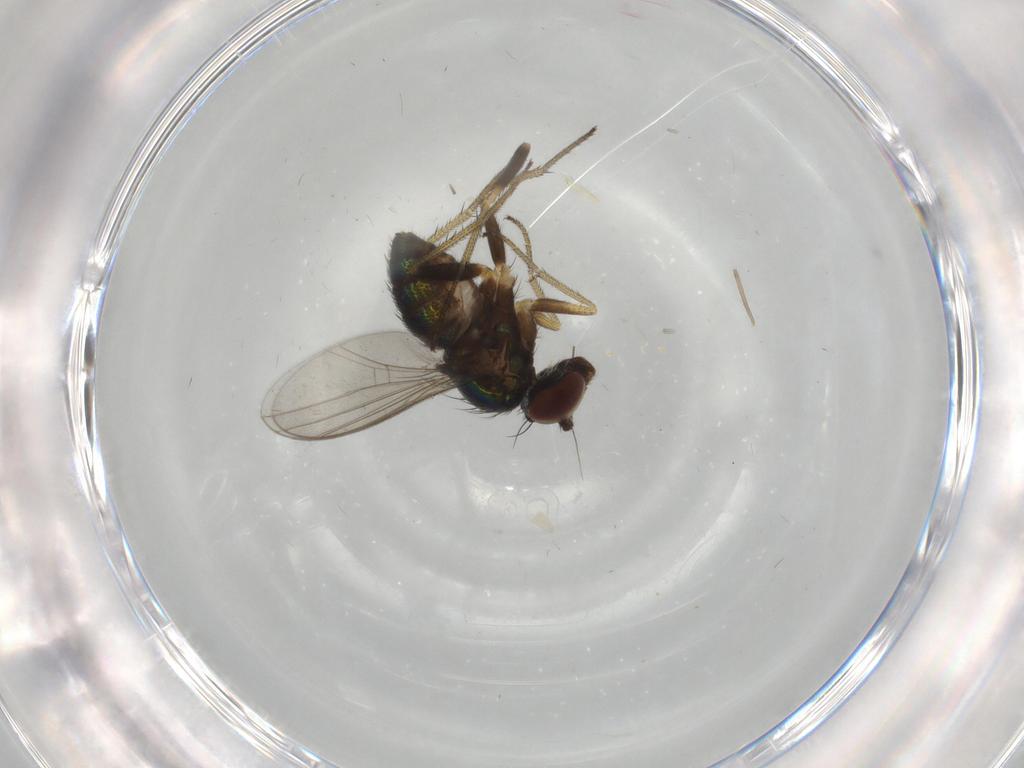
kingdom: Animalia
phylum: Arthropoda
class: Insecta
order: Diptera
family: Dolichopodidae
